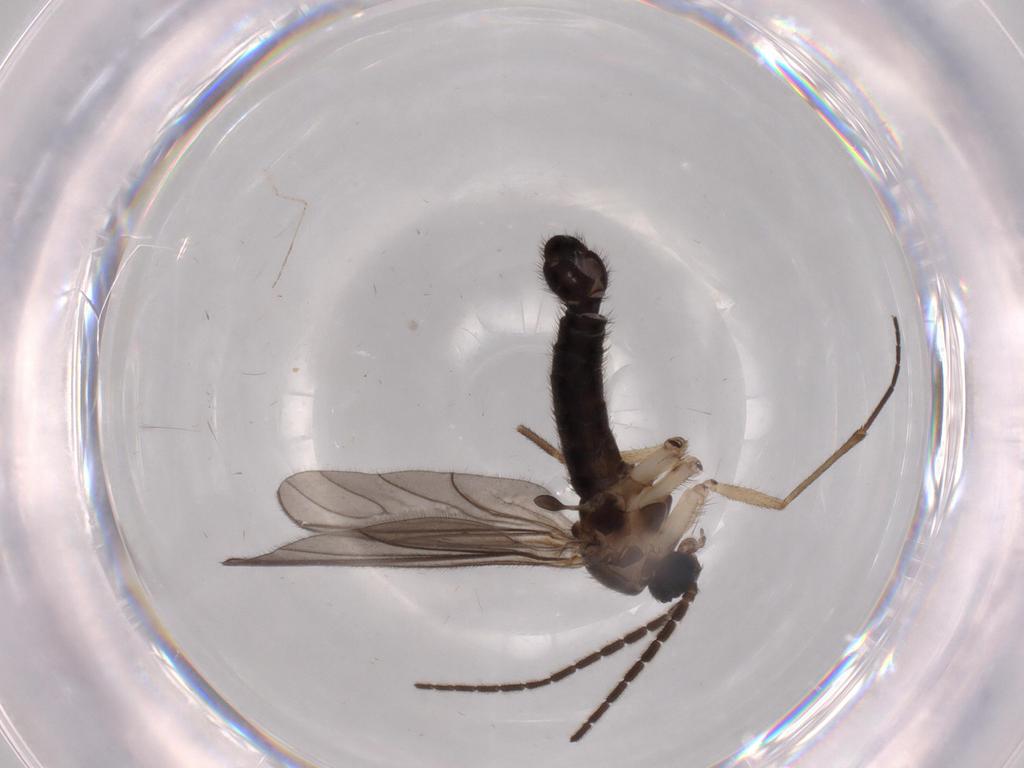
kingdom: Animalia
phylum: Arthropoda
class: Insecta
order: Diptera
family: Sciaridae
